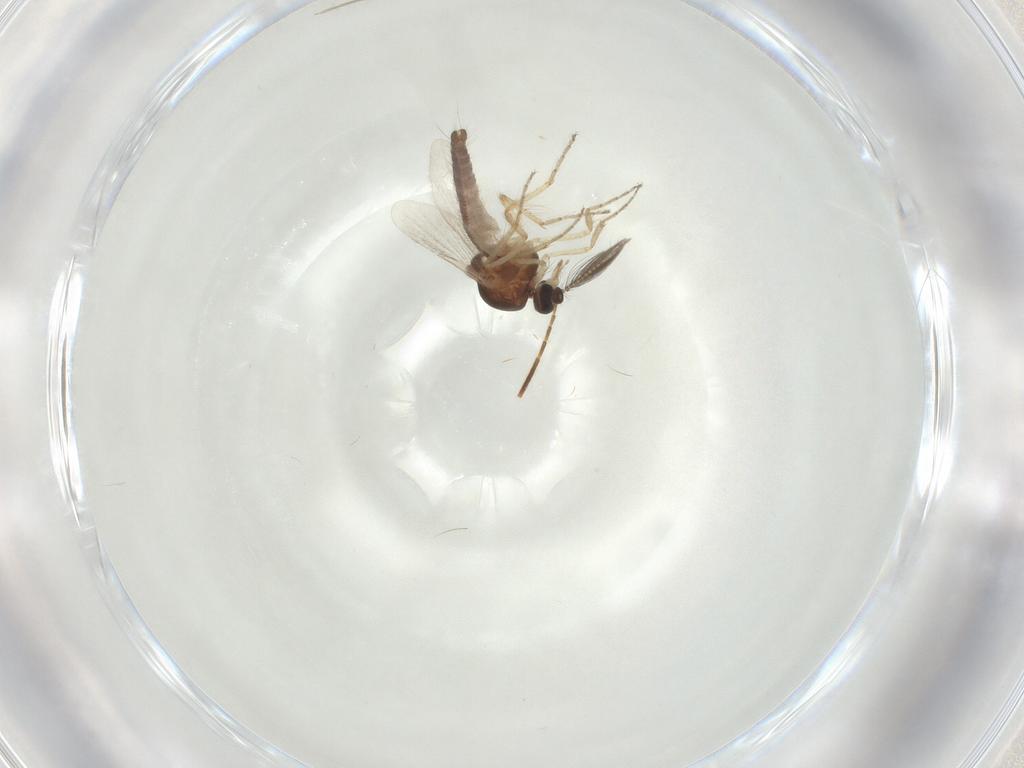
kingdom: Animalia
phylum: Arthropoda
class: Insecta
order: Diptera
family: Ceratopogonidae
